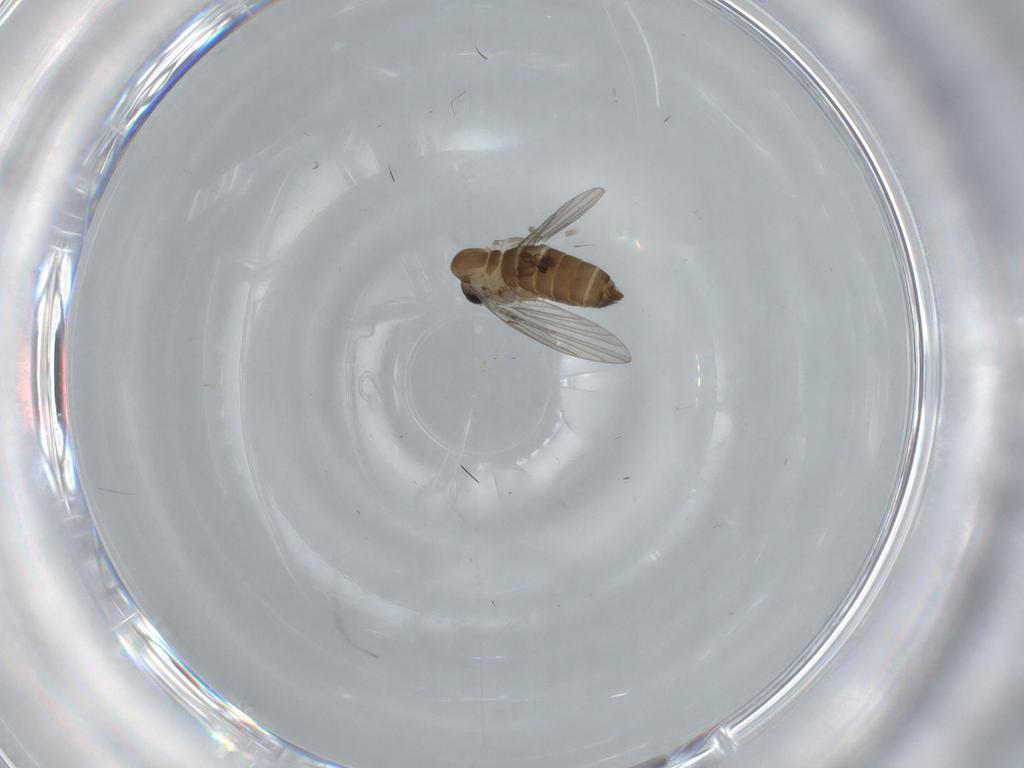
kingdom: Animalia
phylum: Arthropoda
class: Insecta
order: Diptera
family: Psychodidae
